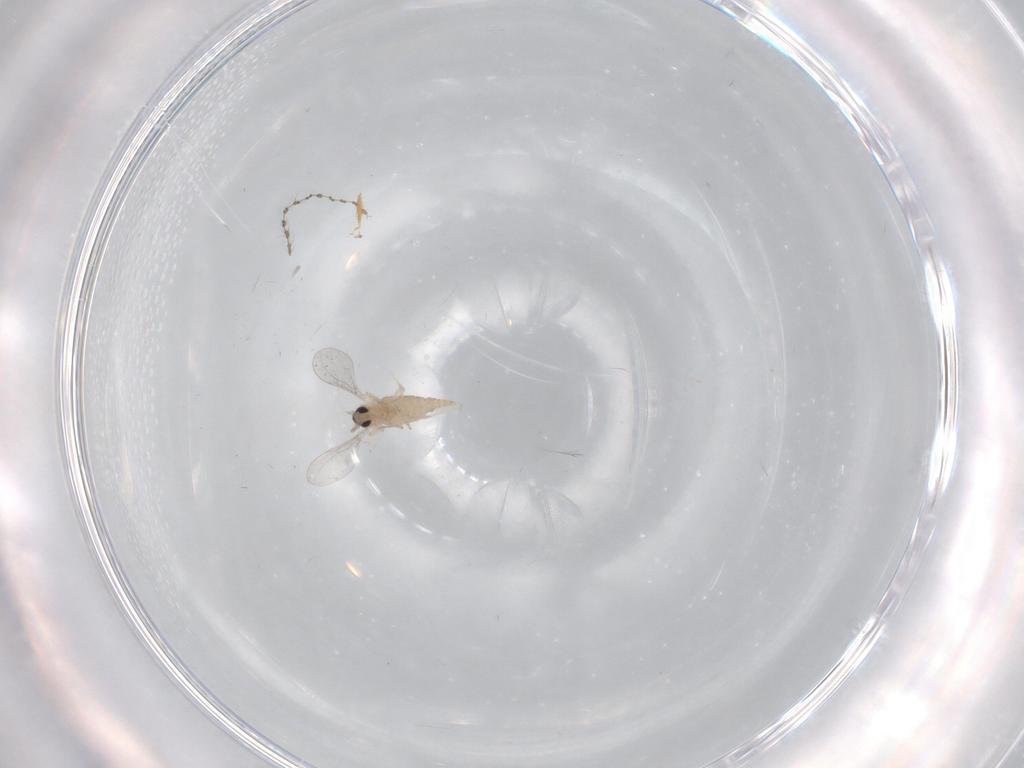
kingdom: Animalia
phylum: Arthropoda
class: Insecta
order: Diptera
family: Cecidomyiidae
